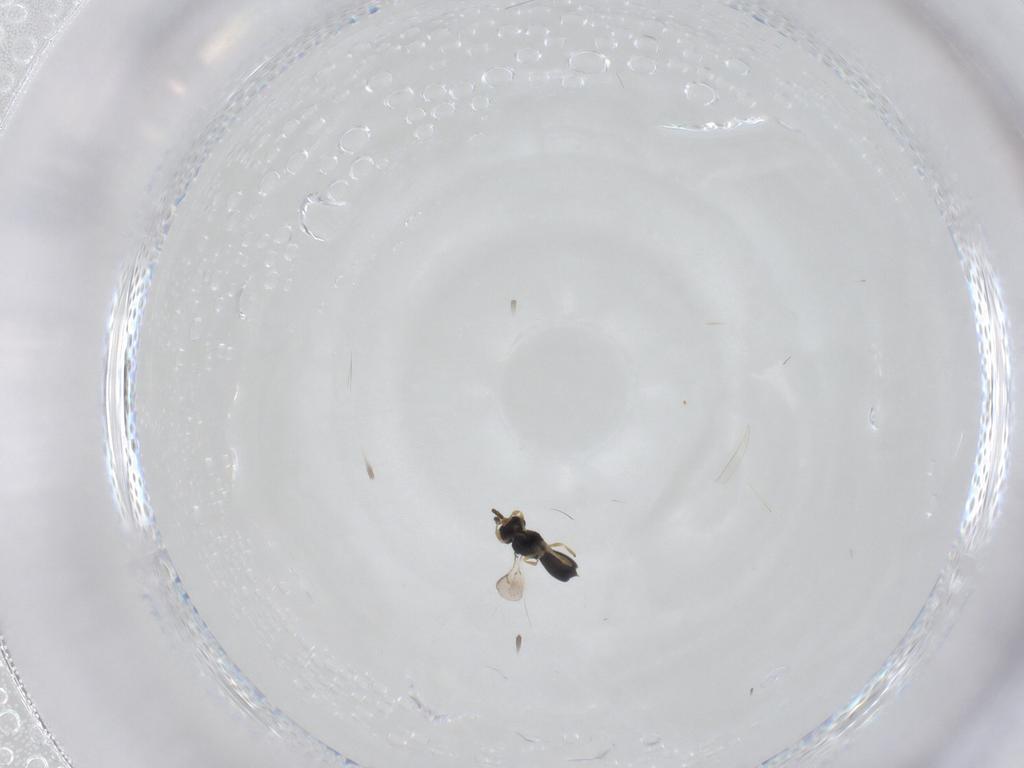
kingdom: Animalia
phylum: Arthropoda
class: Insecta
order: Hymenoptera
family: Scelionidae
